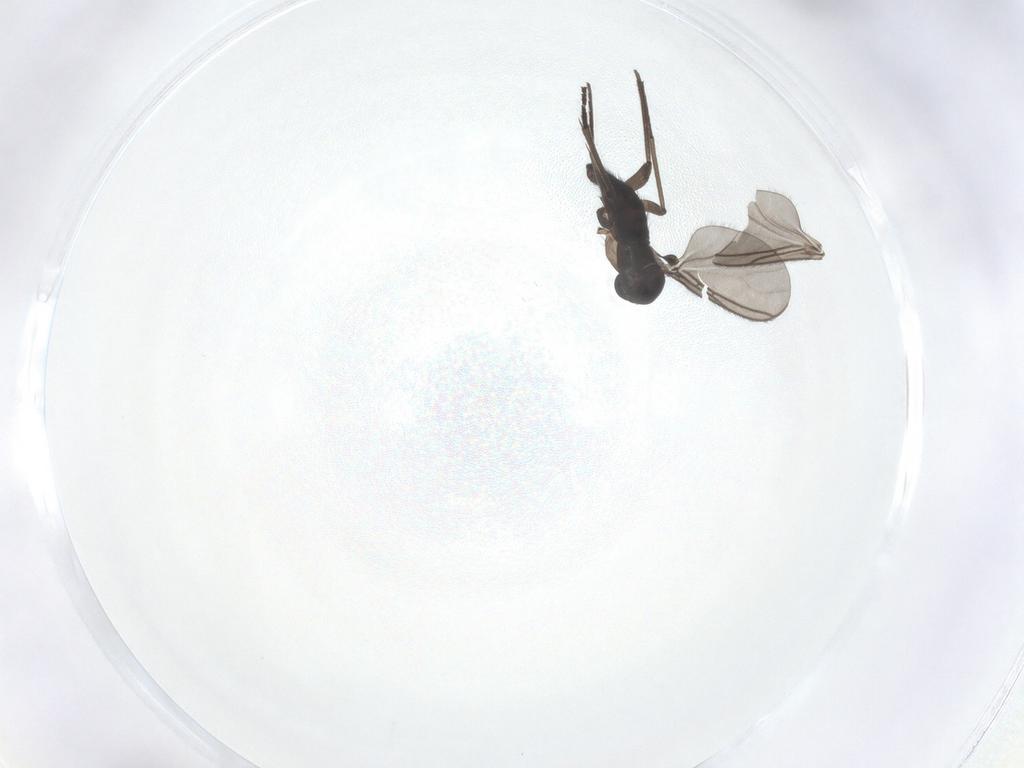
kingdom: Animalia
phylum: Arthropoda
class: Insecta
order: Diptera
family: Sciaridae
